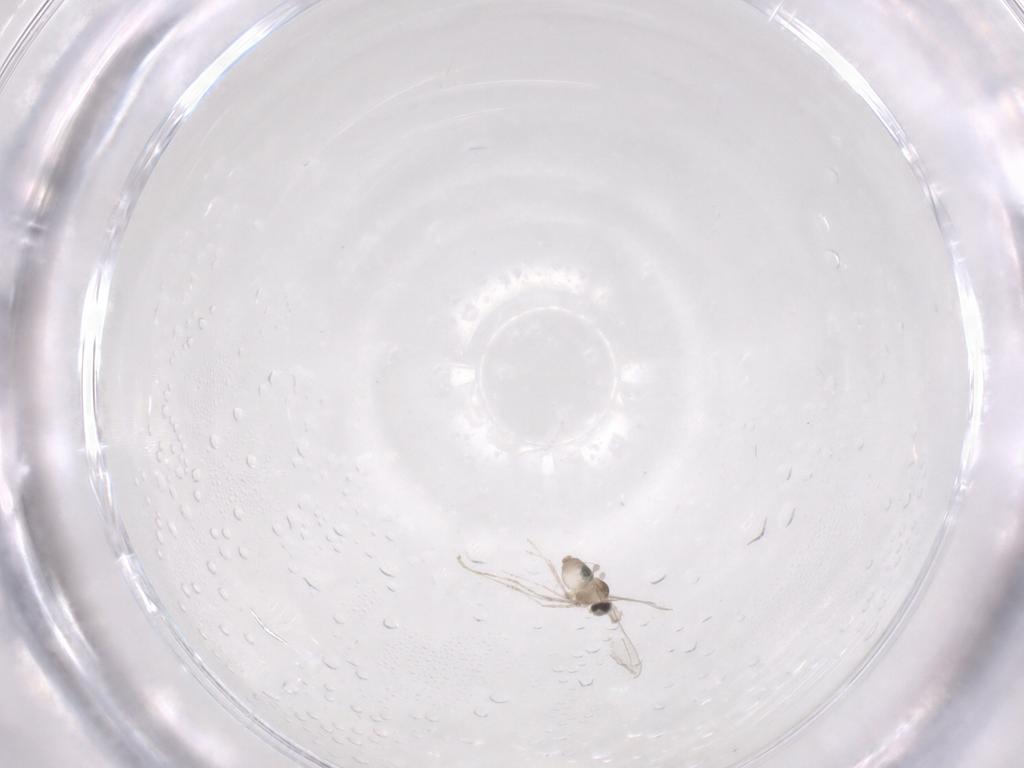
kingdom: Animalia
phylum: Arthropoda
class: Insecta
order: Diptera
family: Cecidomyiidae
